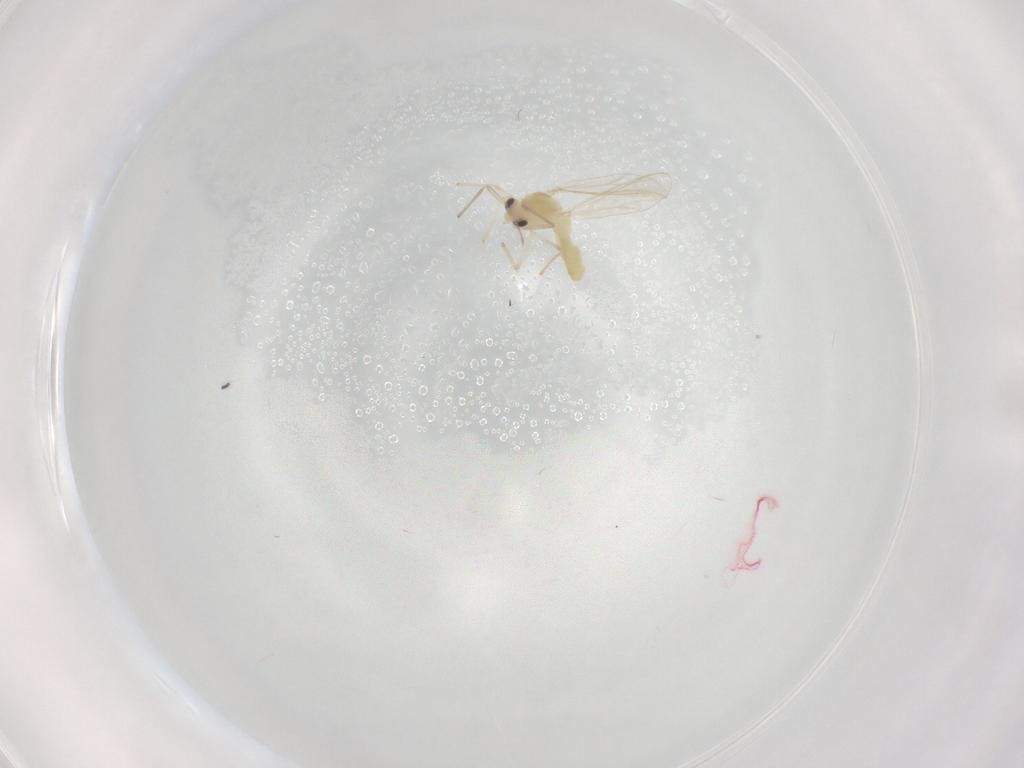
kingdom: Animalia
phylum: Arthropoda
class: Insecta
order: Diptera
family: Chironomidae
